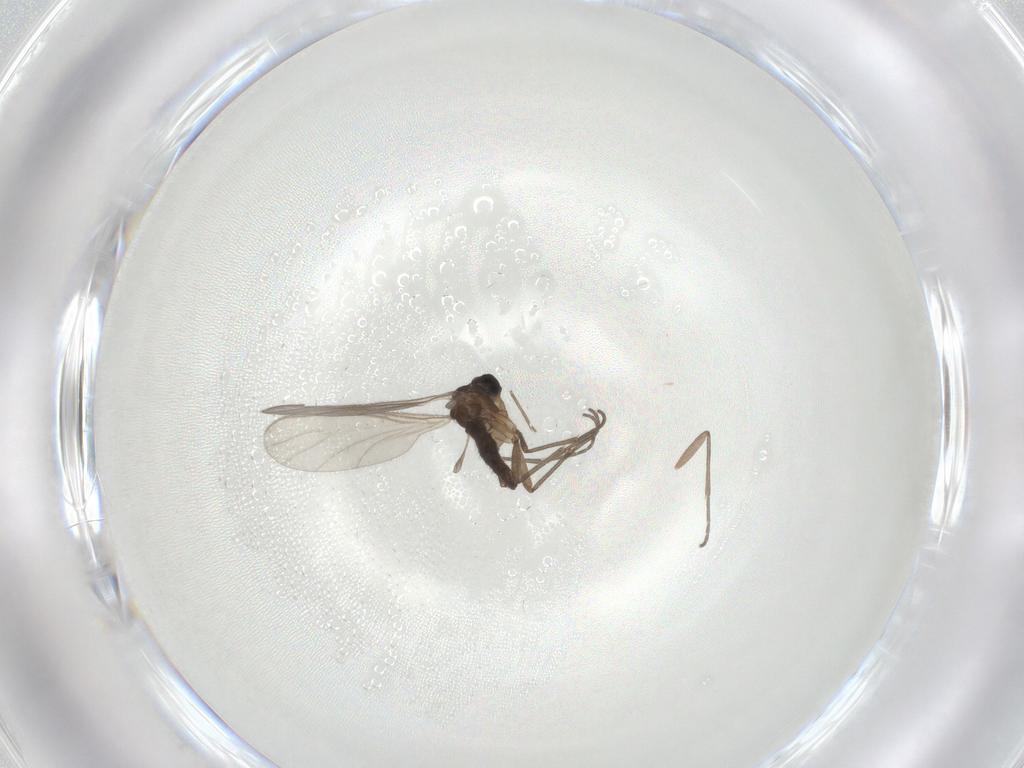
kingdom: Animalia
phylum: Arthropoda
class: Insecta
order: Diptera
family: Sciaridae
